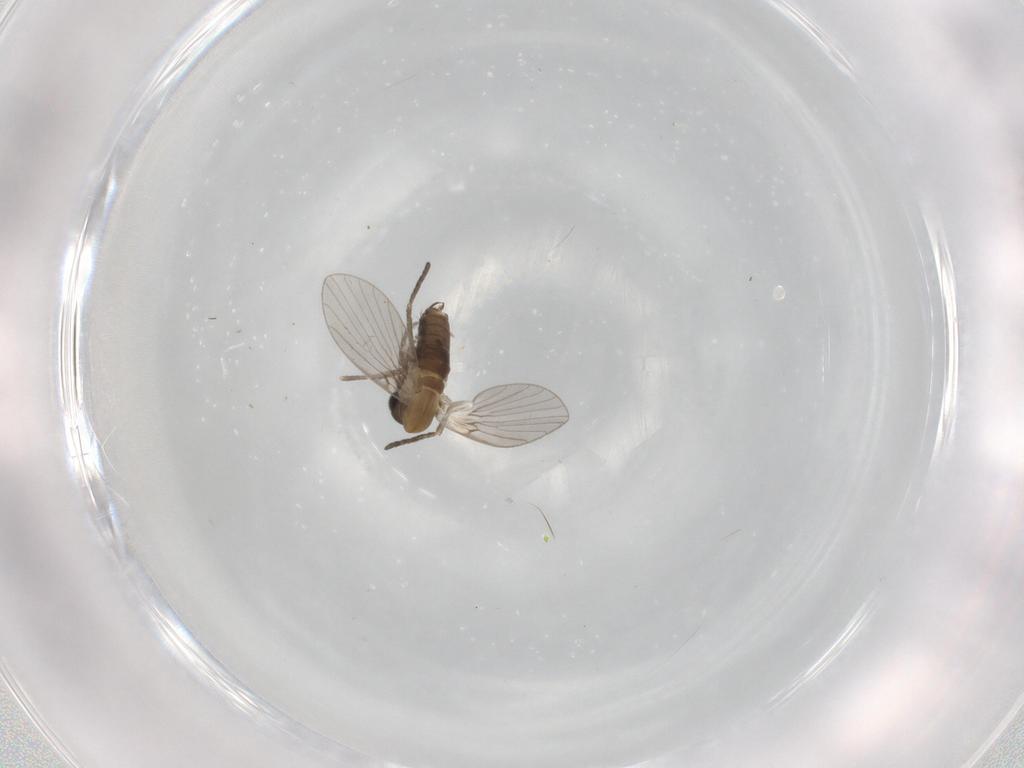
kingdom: Animalia
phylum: Arthropoda
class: Insecta
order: Diptera
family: Psychodidae
